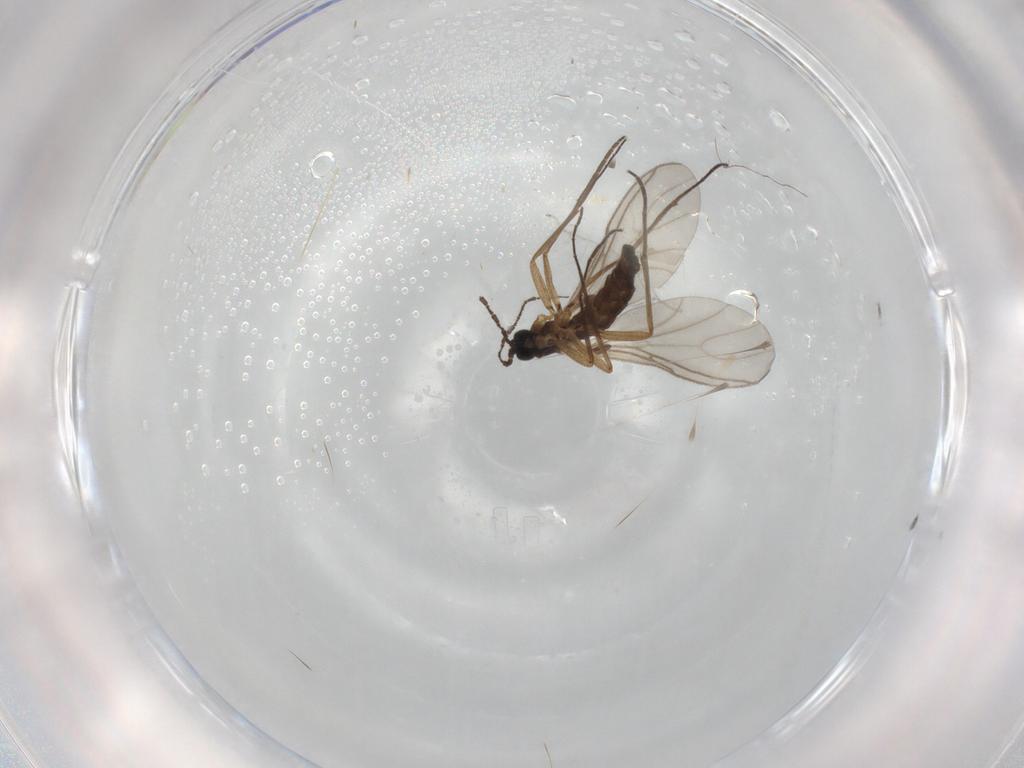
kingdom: Animalia
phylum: Arthropoda
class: Insecta
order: Diptera
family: Sciaridae
